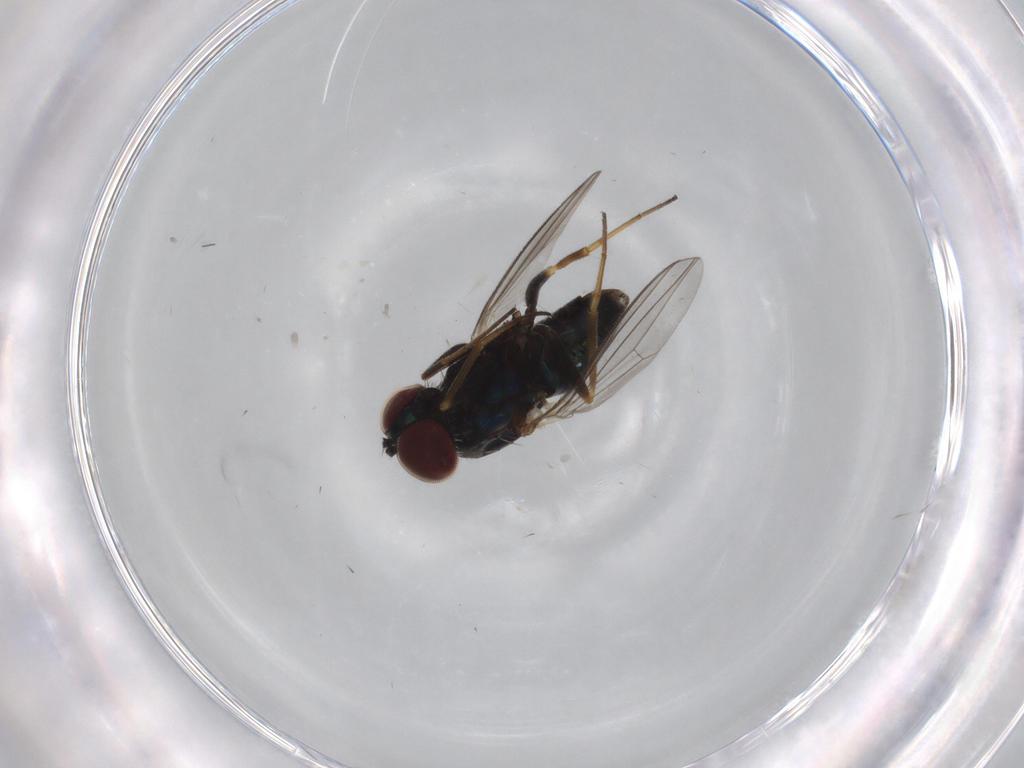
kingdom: Animalia
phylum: Arthropoda
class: Insecta
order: Diptera
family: Dolichopodidae
